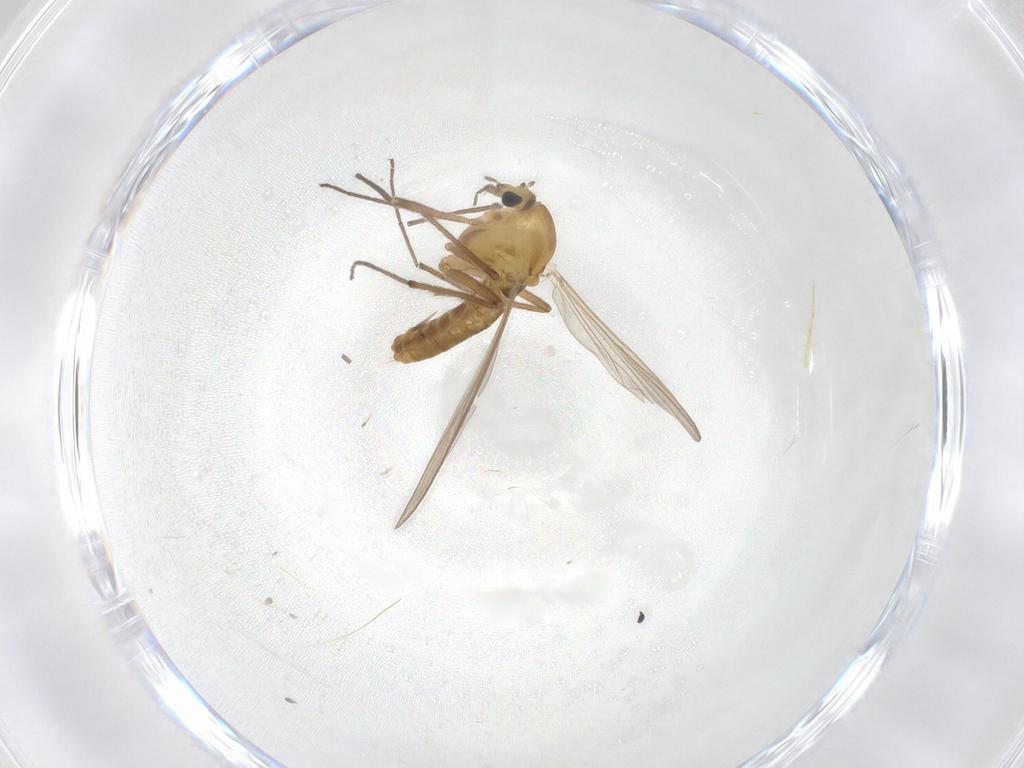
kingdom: Animalia
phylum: Arthropoda
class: Insecta
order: Diptera
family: Chironomidae
